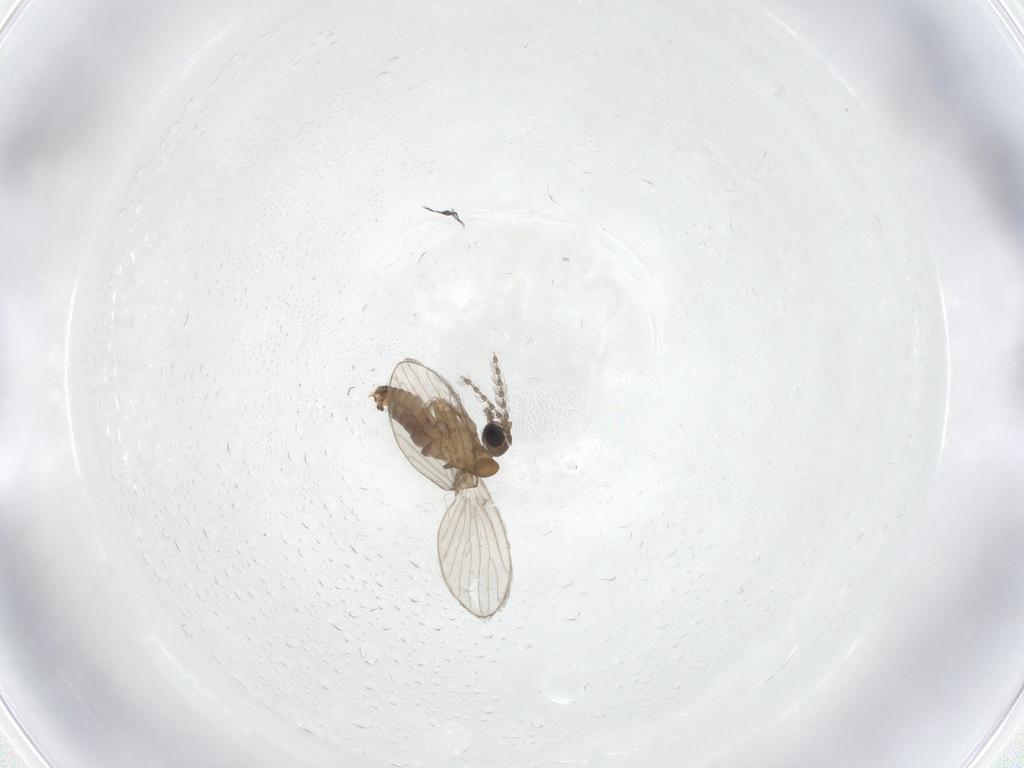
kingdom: Animalia
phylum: Arthropoda
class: Insecta
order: Diptera
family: Psychodidae
